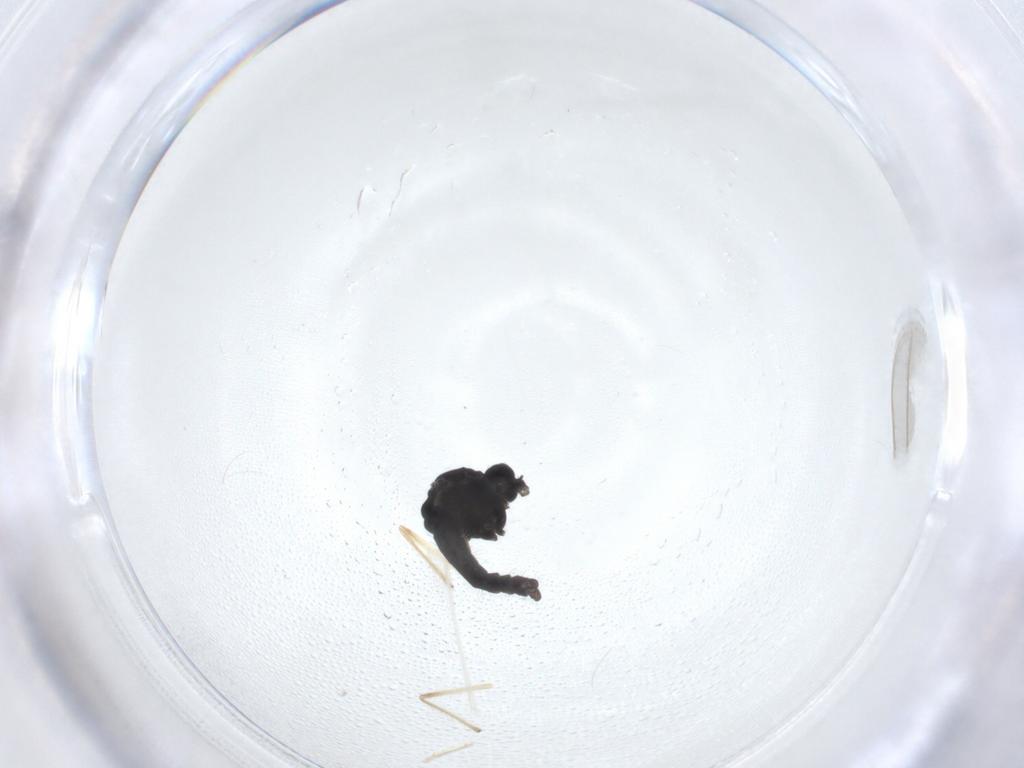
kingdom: Animalia
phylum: Arthropoda
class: Insecta
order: Diptera
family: Chironomidae
